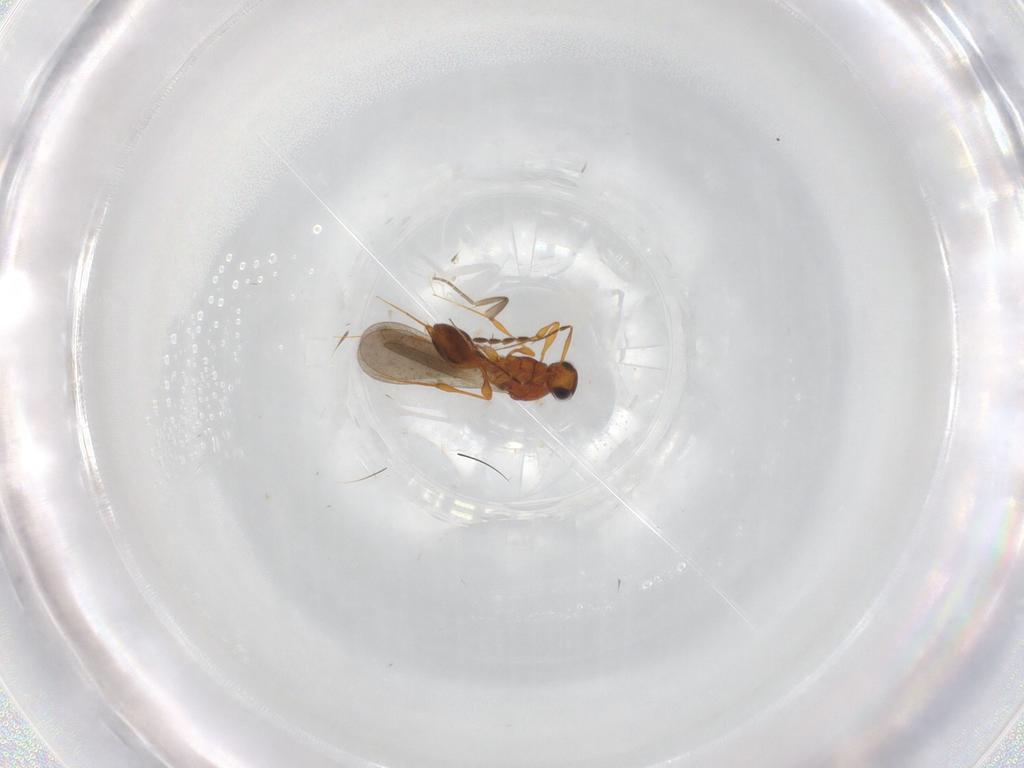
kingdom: Animalia
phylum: Arthropoda
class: Insecta
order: Hymenoptera
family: Platygastridae
